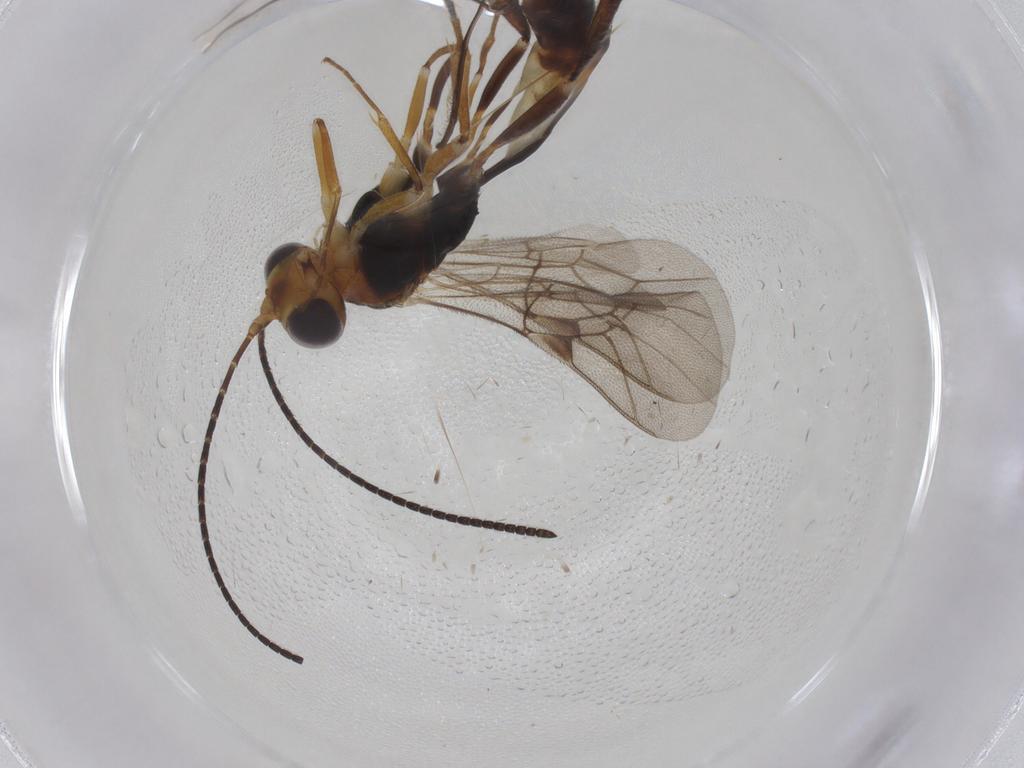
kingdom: Animalia
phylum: Arthropoda
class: Insecta
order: Hymenoptera
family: Ichneumonidae
